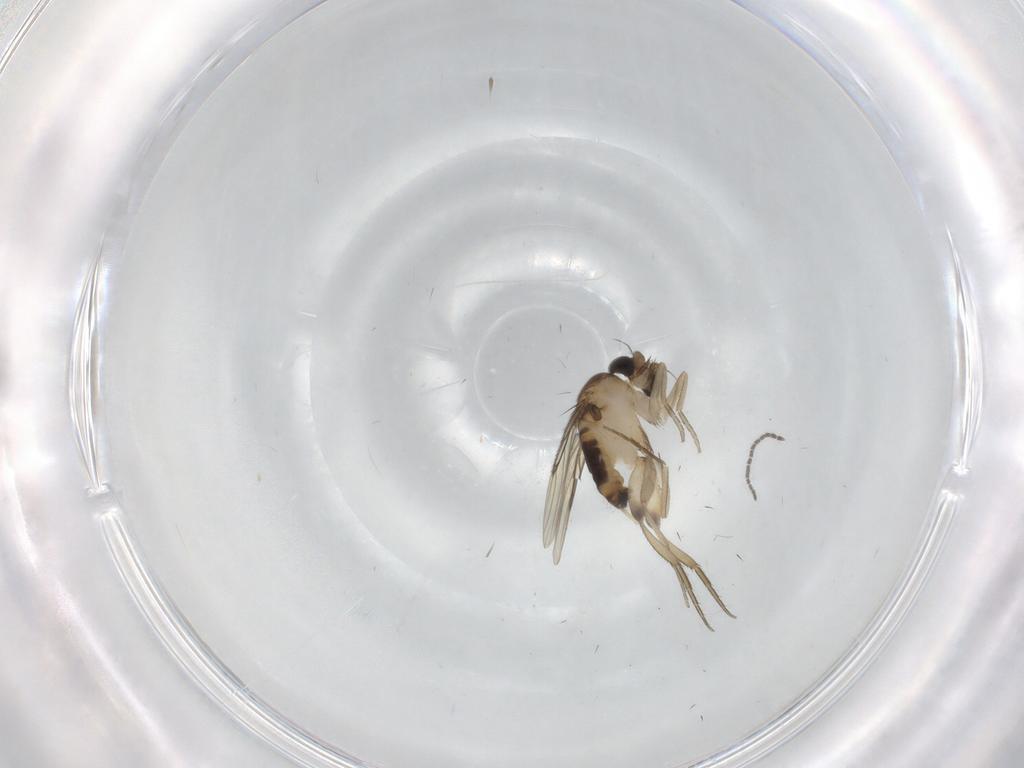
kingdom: Animalia
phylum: Arthropoda
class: Insecta
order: Diptera
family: Phoridae
